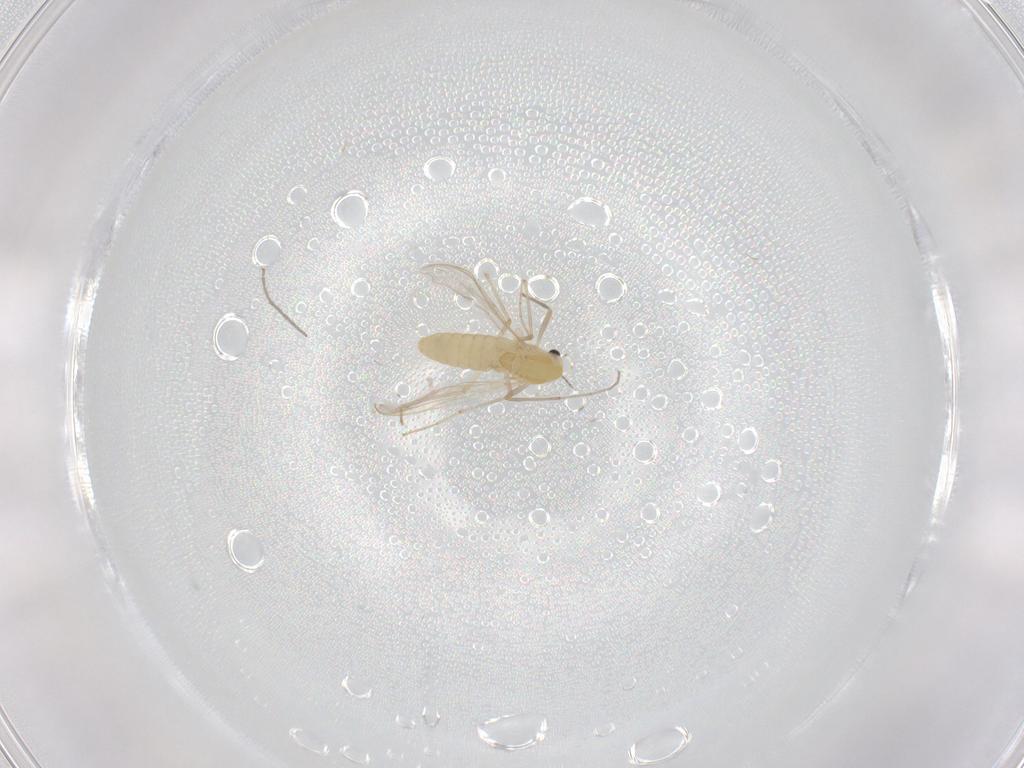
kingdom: Animalia
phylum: Arthropoda
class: Insecta
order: Diptera
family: Chironomidae
